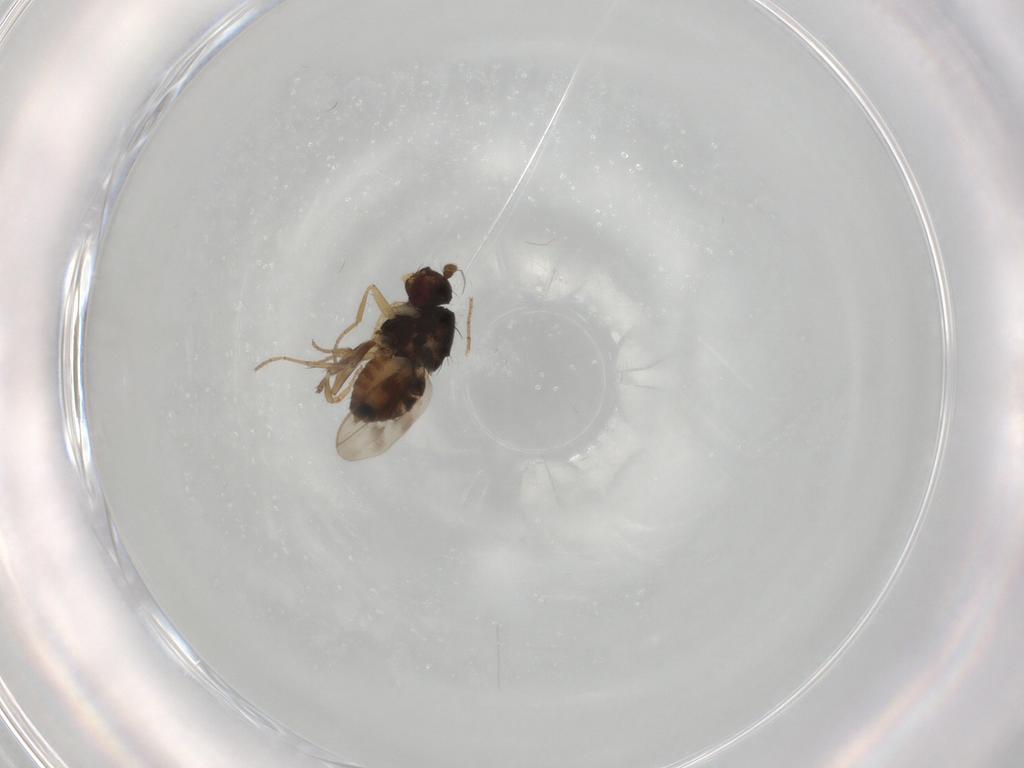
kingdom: Animalia
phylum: Arthropoda
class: Insecta
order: Diptera
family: Sphaeroceridae
